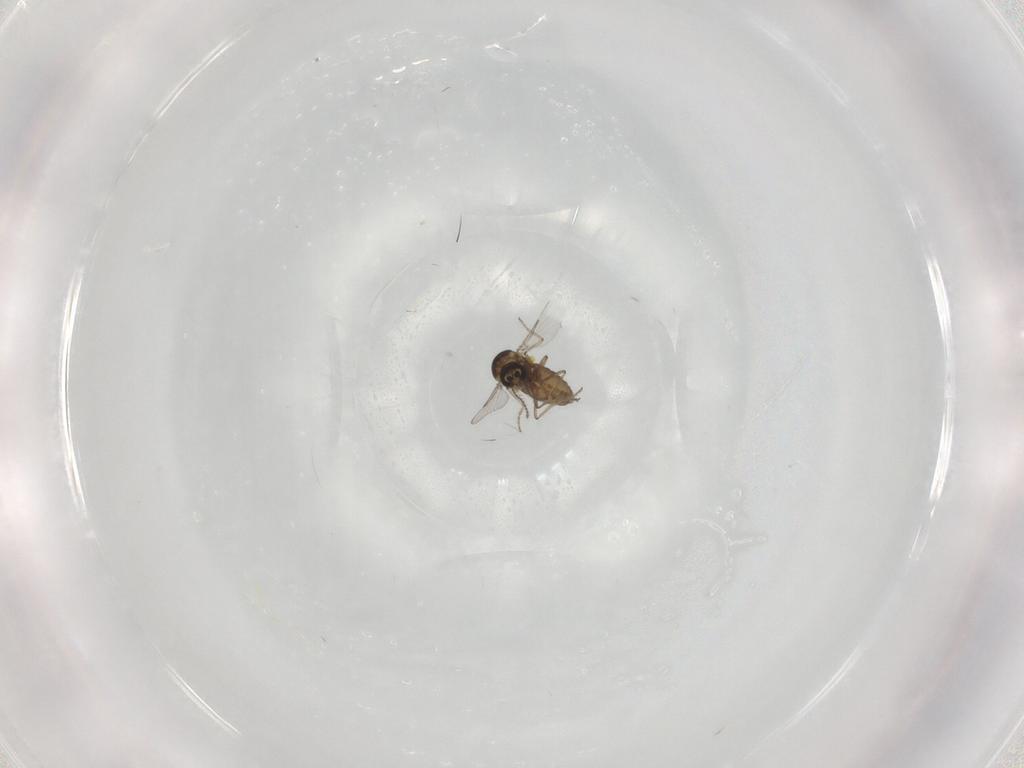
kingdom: Animalia
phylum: Arthropoda
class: Insecta
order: Diptera
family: Ceratopogonidae
